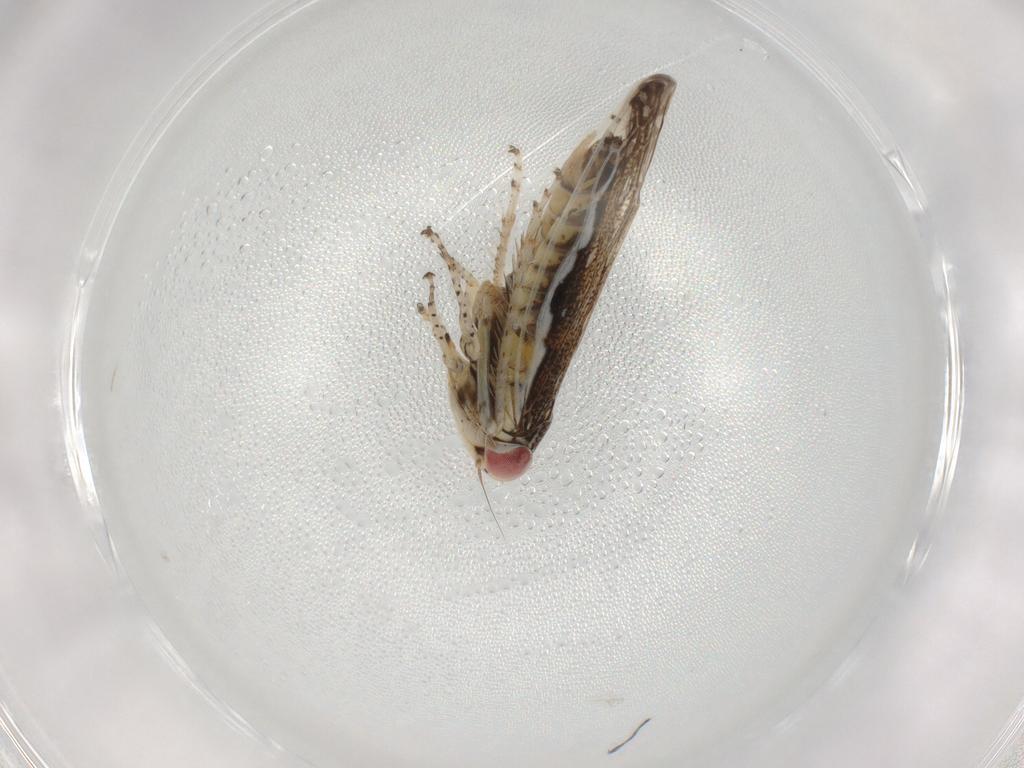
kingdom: Animalia
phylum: Arthropoda
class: Insecta
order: Hemiptera
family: Cicadellidae
